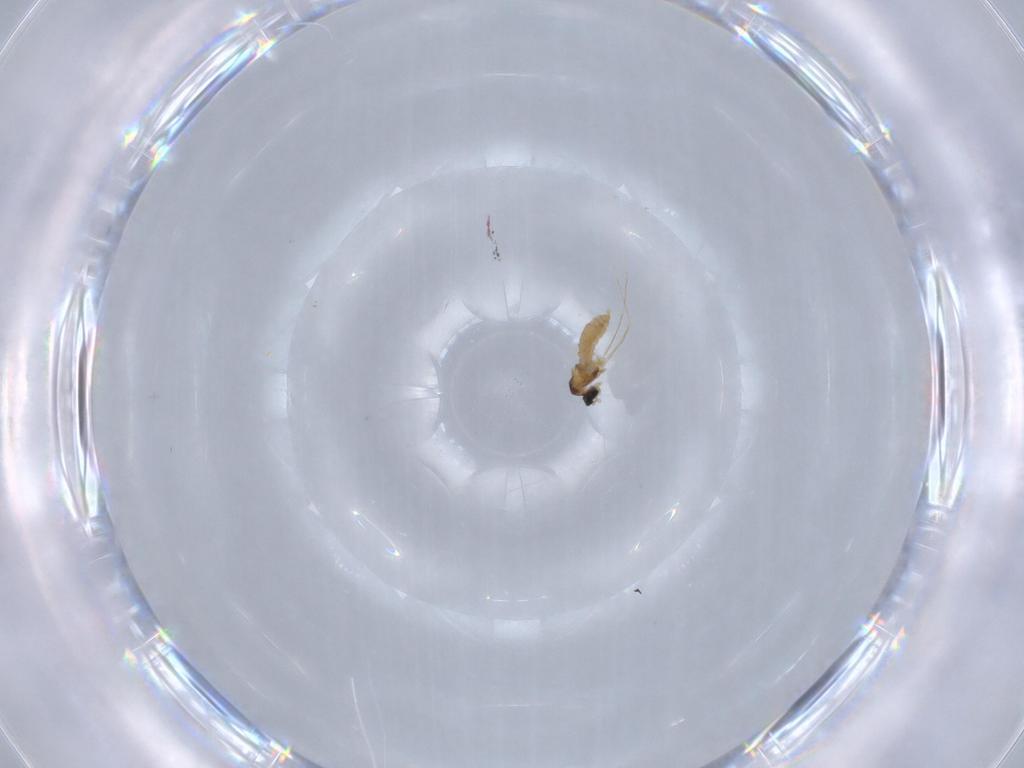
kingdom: Animalia
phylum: Arthropoda
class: Insecta
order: Diptera
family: Cecidomyiidae
